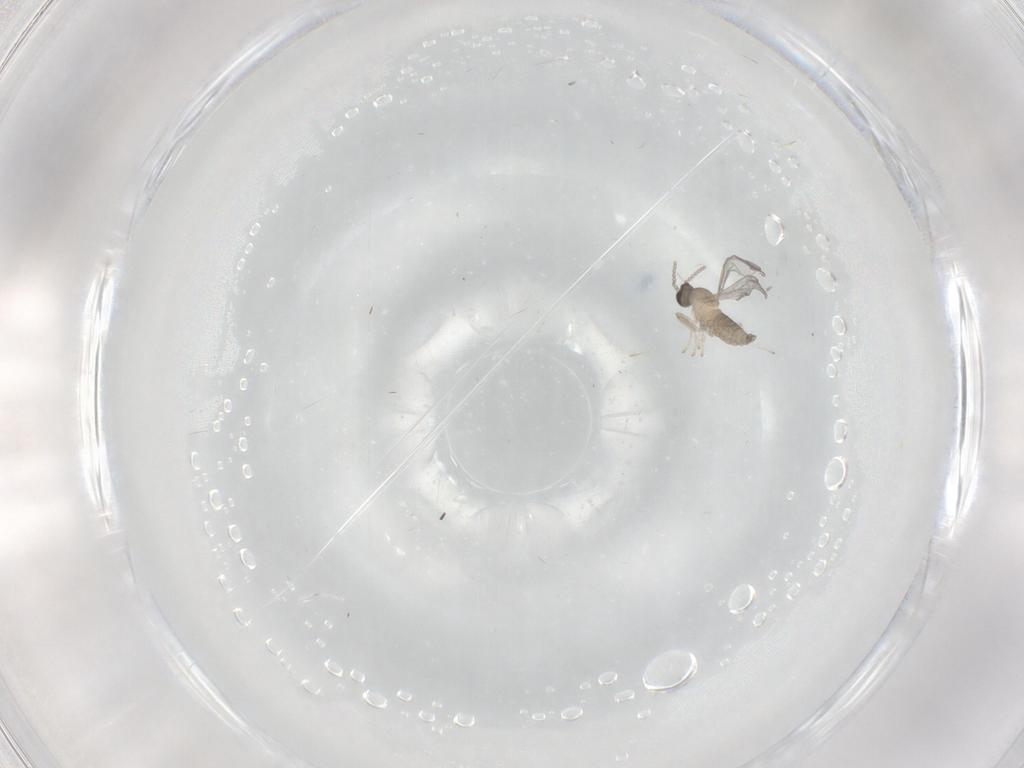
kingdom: Animalia
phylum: Arthropoda
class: Insecta
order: Diptera
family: Cecidomyiidae
